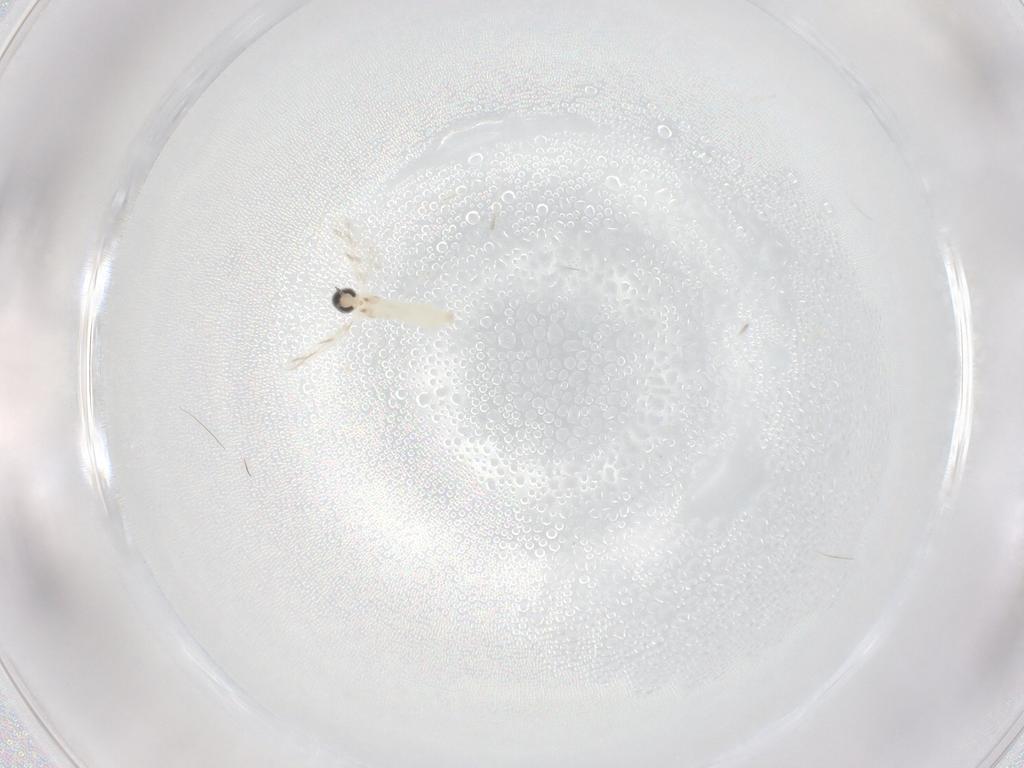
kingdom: Animalia
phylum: Arthropoda
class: Insecta
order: Diptera
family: Cecidomyiidae
